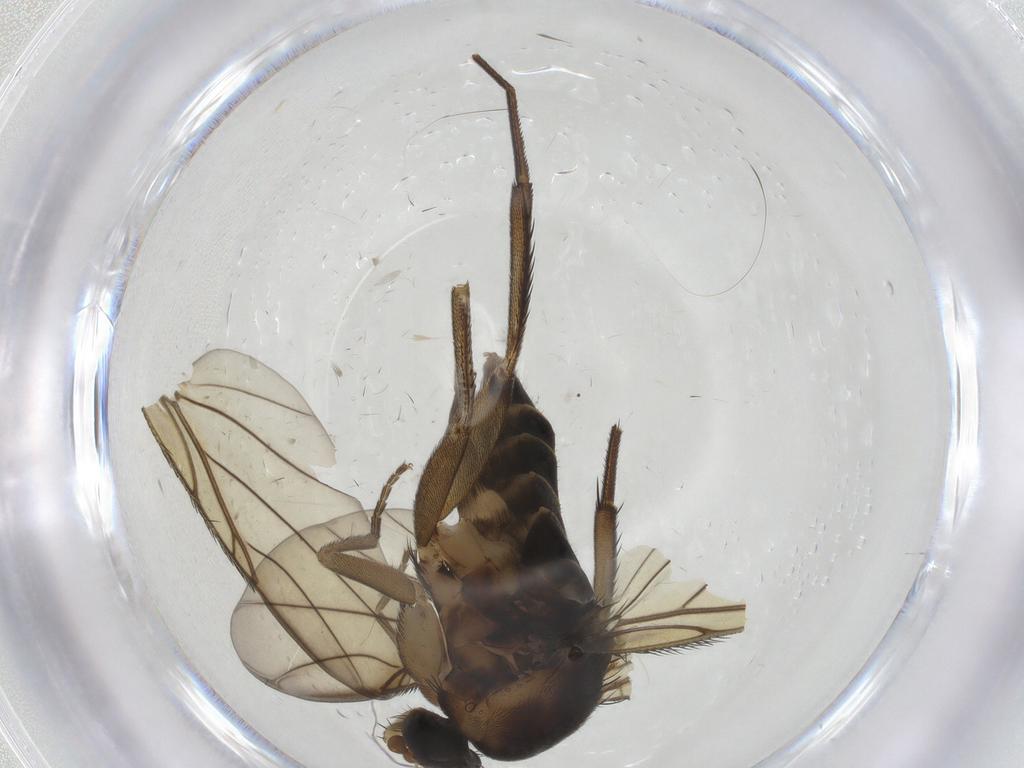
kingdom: Animalia
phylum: Arthropoda
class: Insecta
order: Diptera
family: Phoridae
